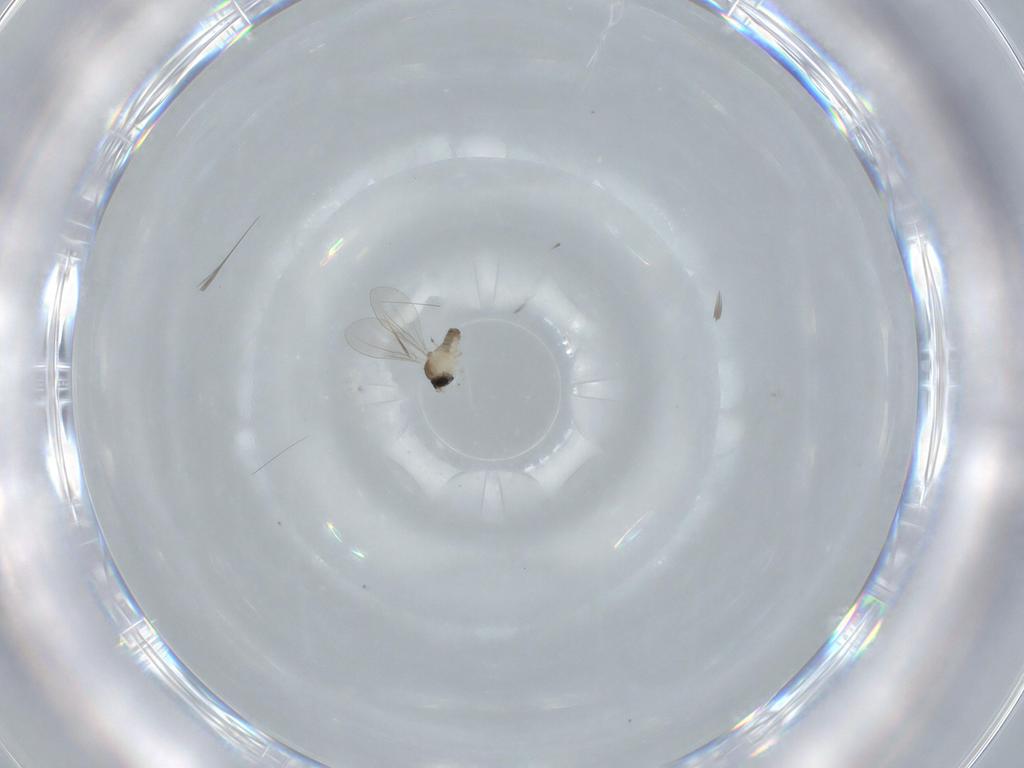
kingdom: Animalia
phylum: Arthropoda
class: Insecta
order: Diptera
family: Cecidomyiidae
